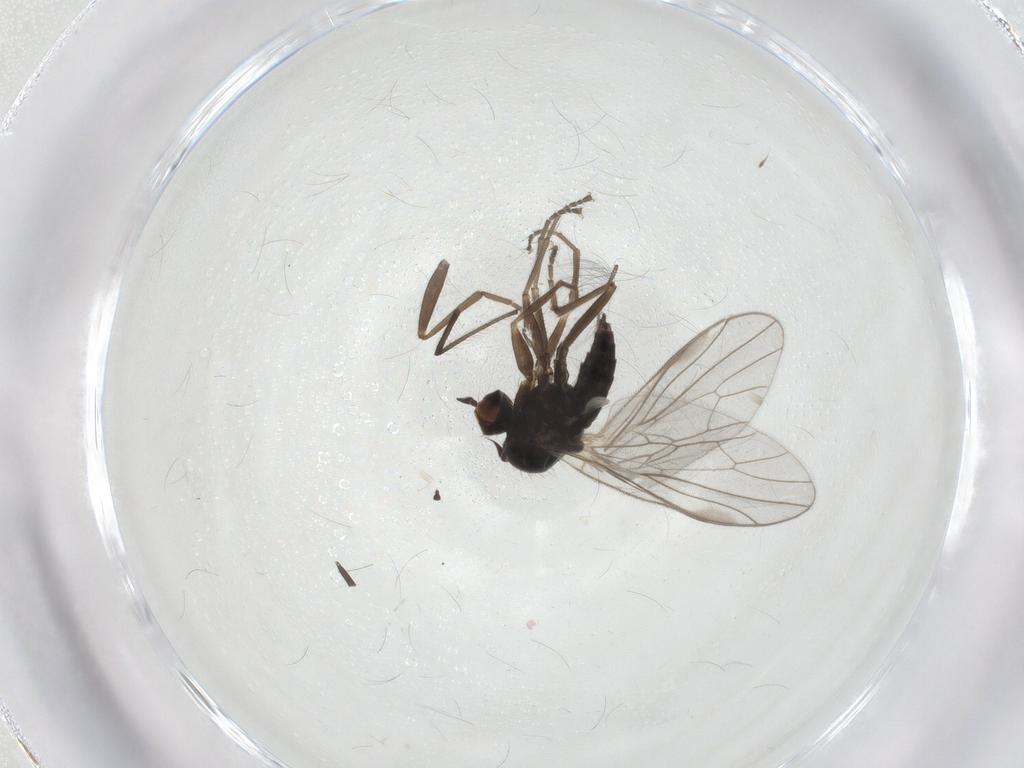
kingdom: Animalia
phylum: Arthropoda
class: Insecta
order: Diptera
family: Hybotidae
